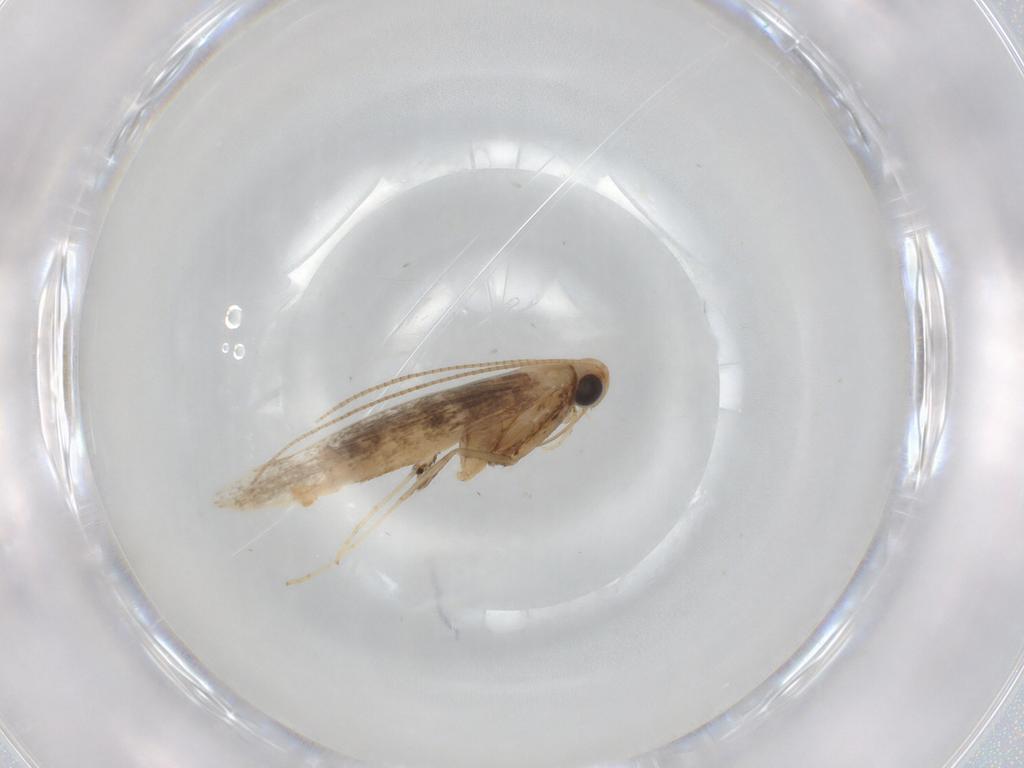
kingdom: Animalia
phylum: Arthropoda
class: Insecta
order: Lepidoptera
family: Gracillariidae
